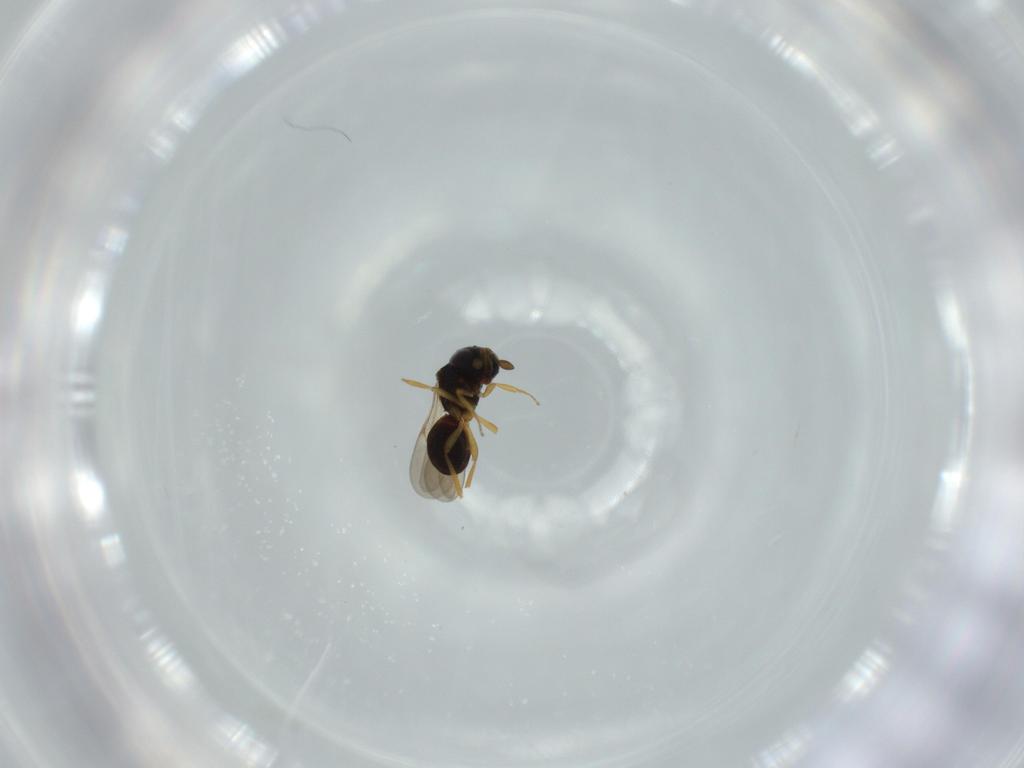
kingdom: Animalia
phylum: Arthropoda
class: Insecta
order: Hymenoptera
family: Scelionidae
